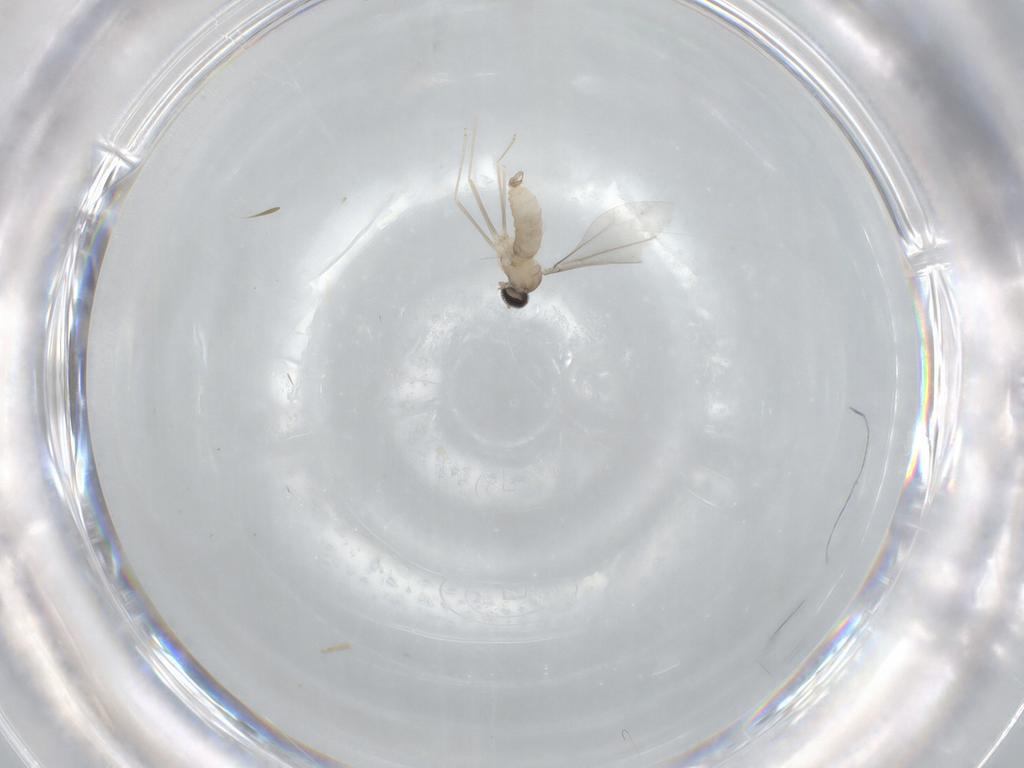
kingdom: Animalia
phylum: Arthropoda
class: Insecta
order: Diptera
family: Cecidomyiidae
